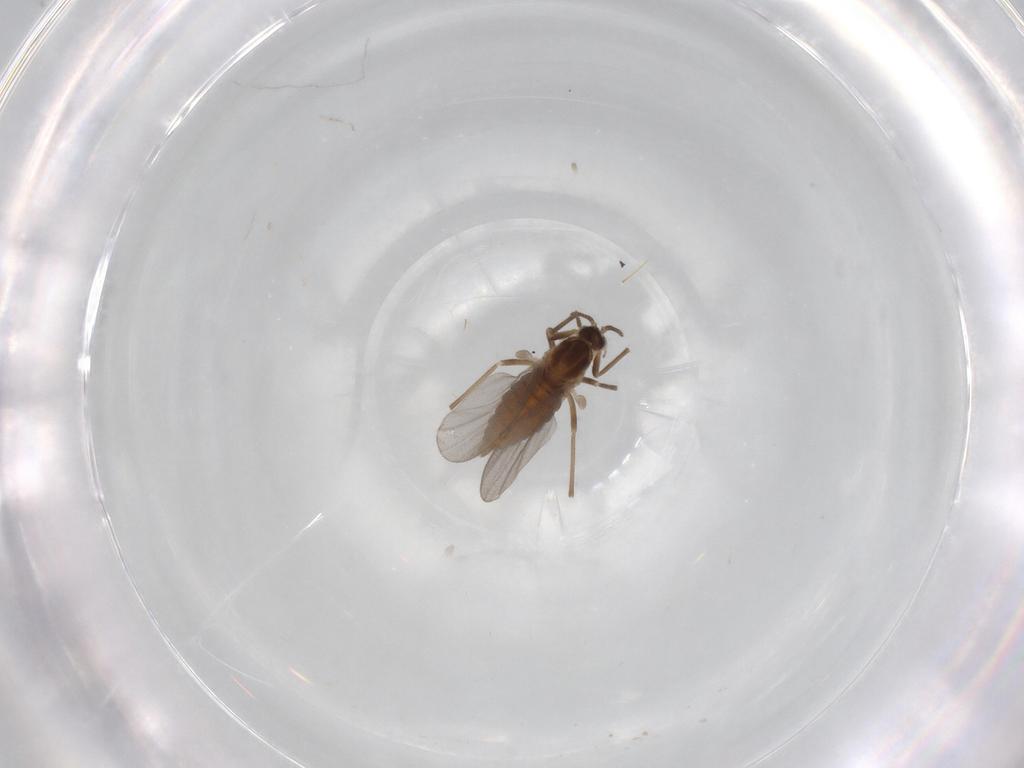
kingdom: Animalia
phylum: Arthropoda
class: Insecta
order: Diptera
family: Cecidomyiidae
